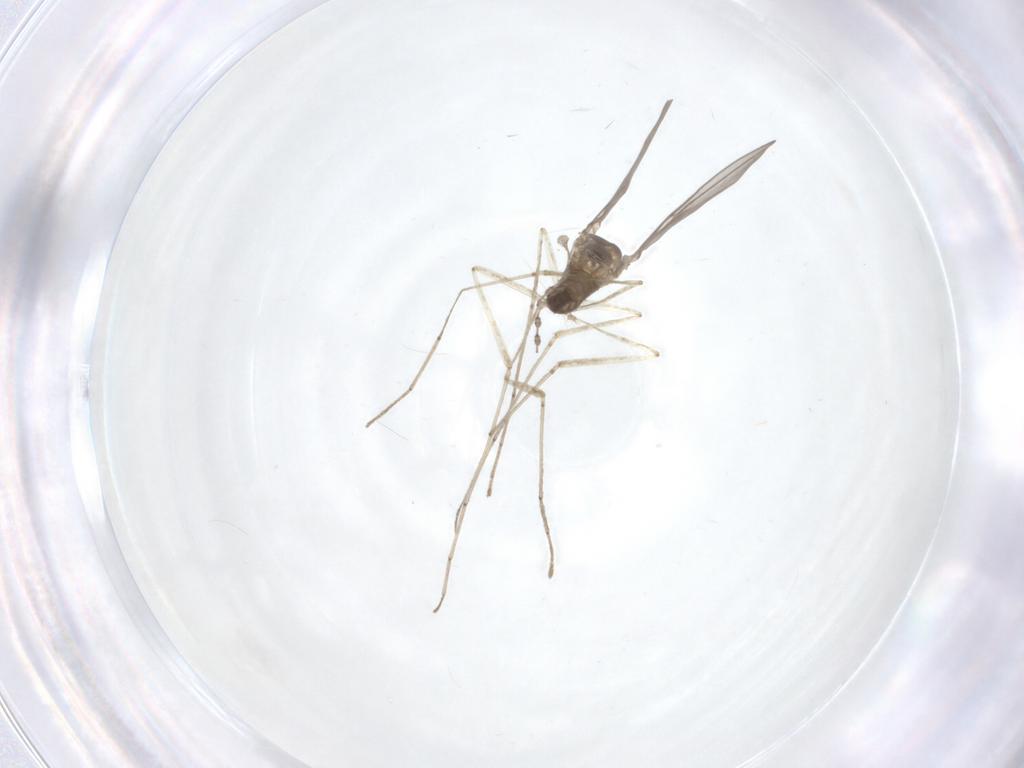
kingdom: Animalia
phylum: Arthropoda
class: Insecta
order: Diptera
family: Cecidomyiidae
